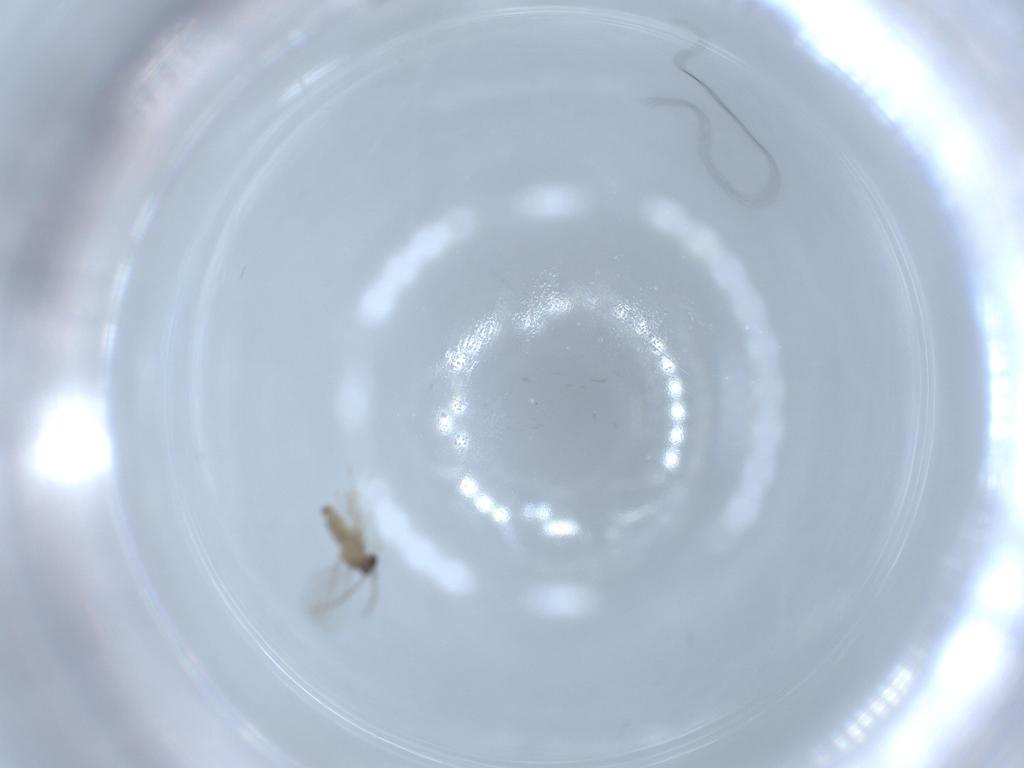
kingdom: Animalia
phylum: Arthropoda
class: Insecta
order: Diptera
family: Cecidomyiidae
